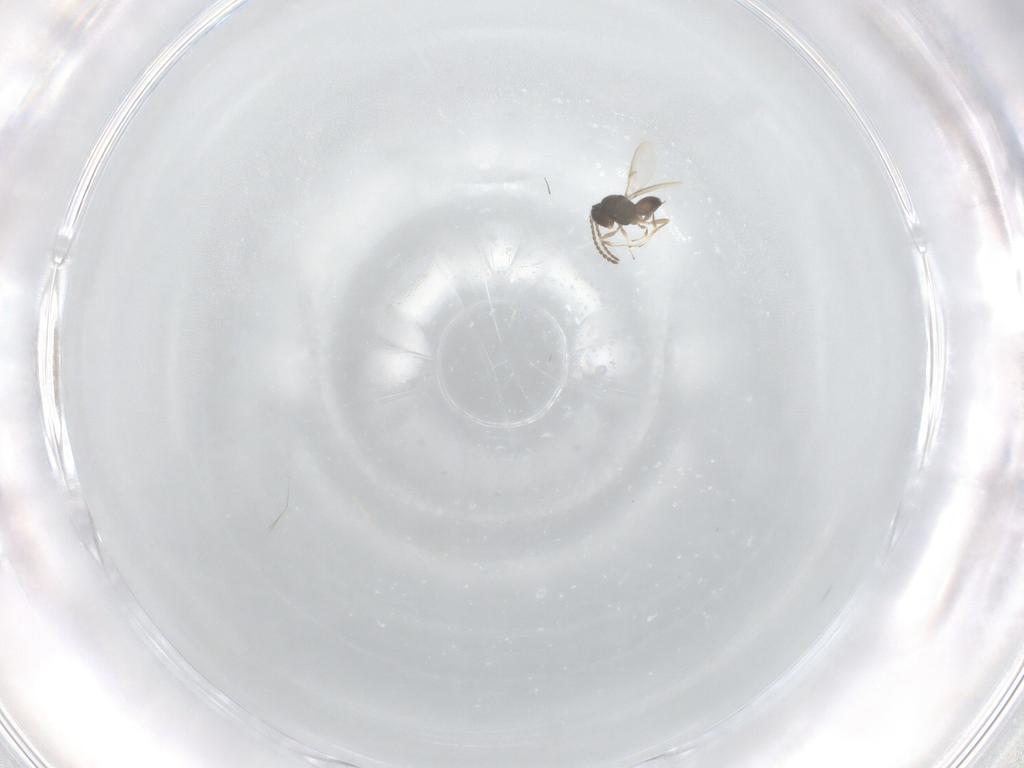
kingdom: Animalia
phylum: Arthropoda
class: Insecta
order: Hymenoptera
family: Scelionidae
